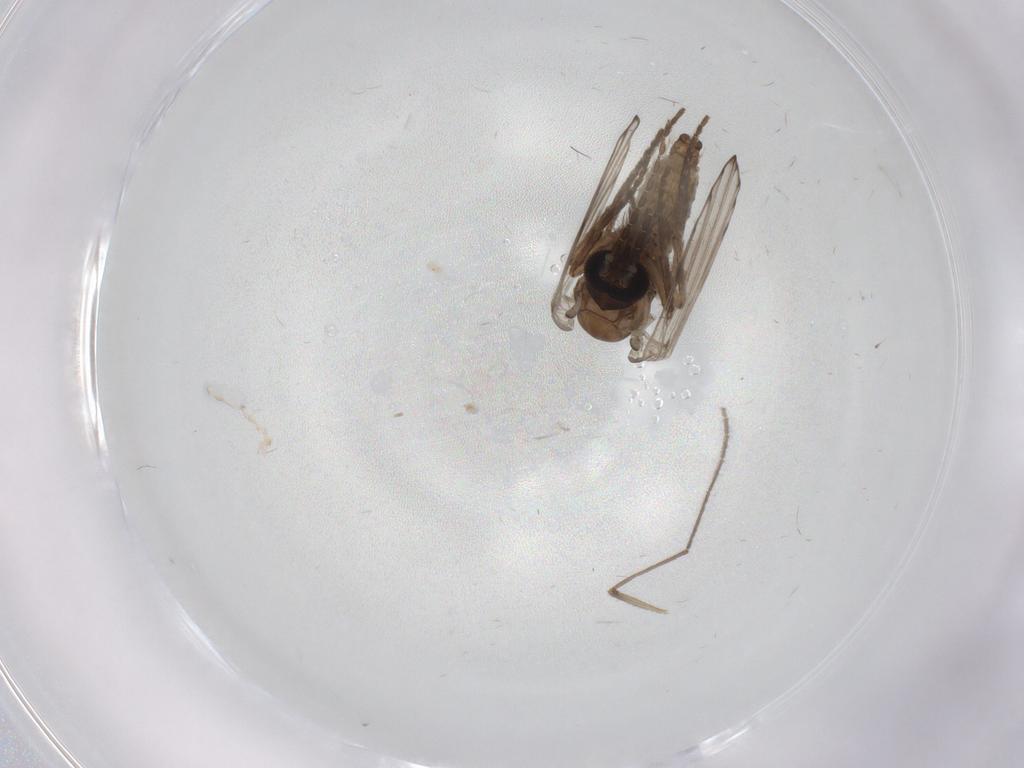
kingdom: Animalia
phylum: Arthropoda
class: Insecta
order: Diptera
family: Psychodidae
